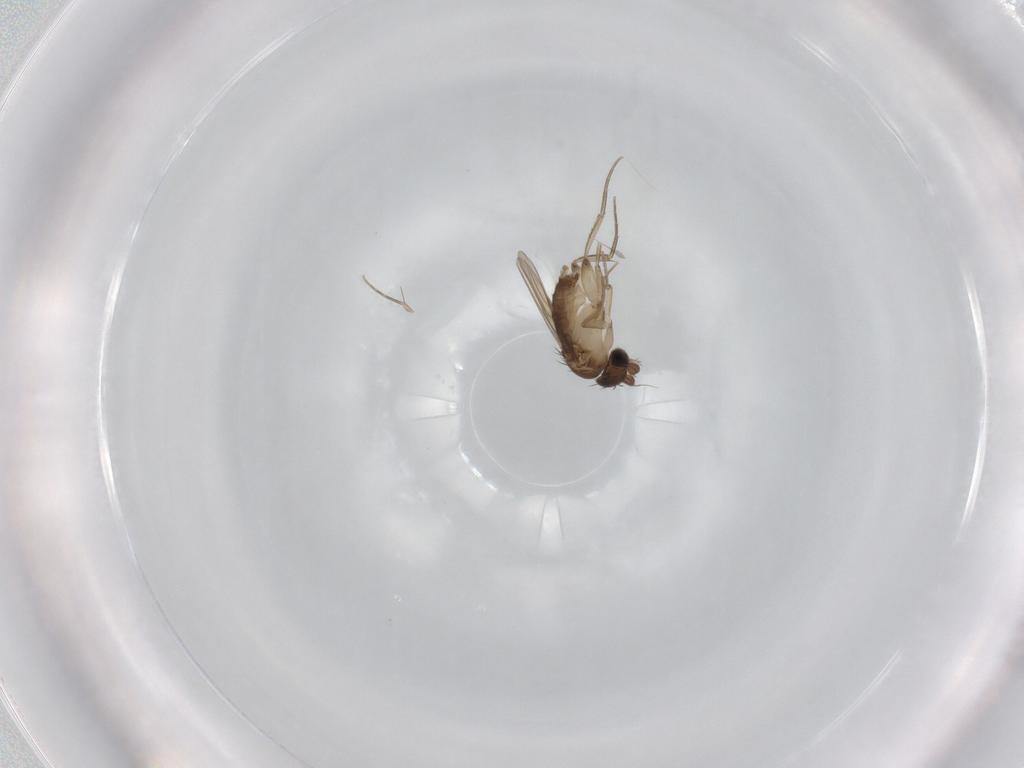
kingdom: Animalia
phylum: Arthropoda
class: Insecta
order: Diptera
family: Phoridae
